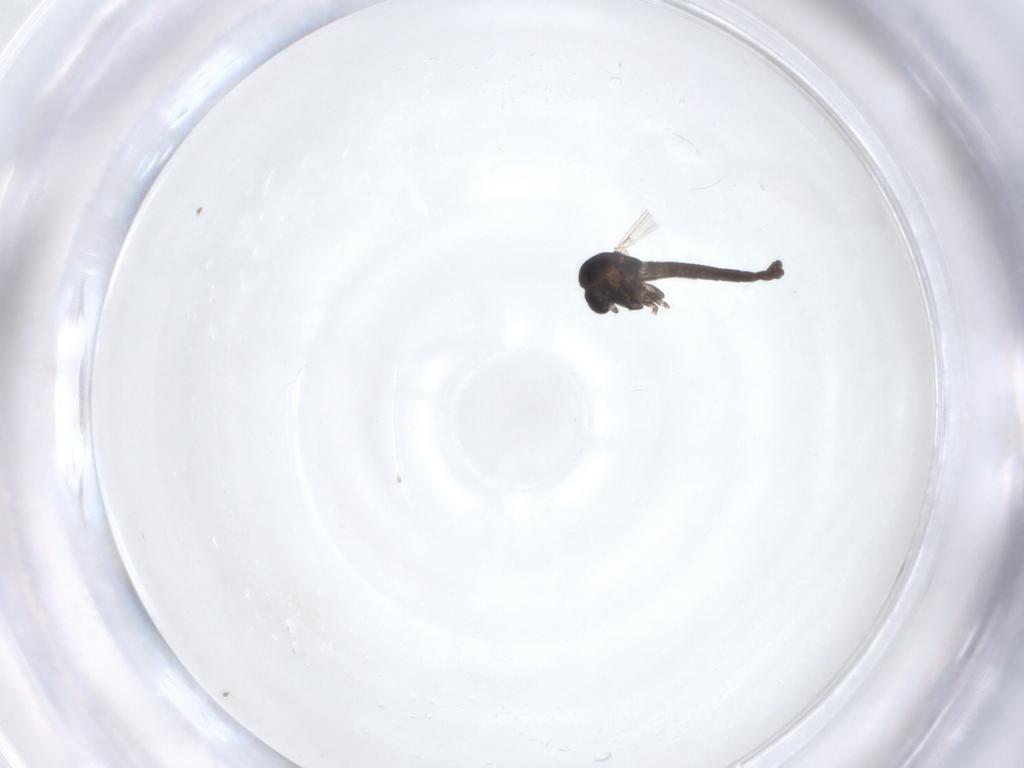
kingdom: Animalia
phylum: Arthropoda
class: Insecta
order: Diptera
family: Chironomidae
